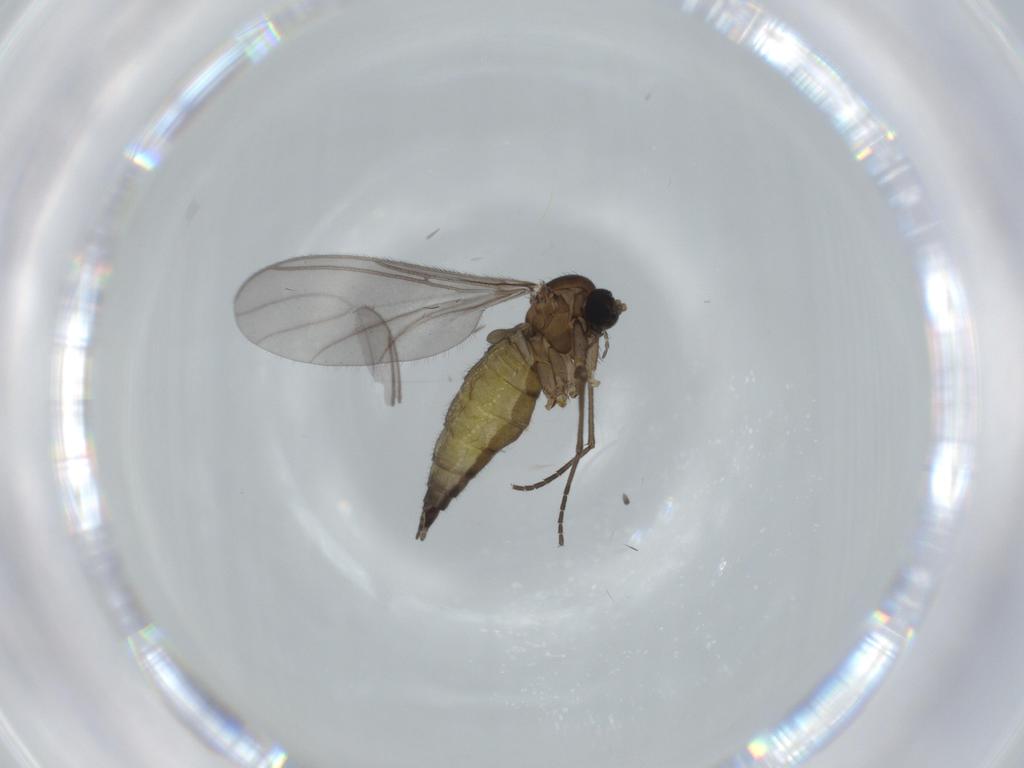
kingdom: Animalia
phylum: Arthropoda
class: Insecta
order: Diptera
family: Sciaridae
